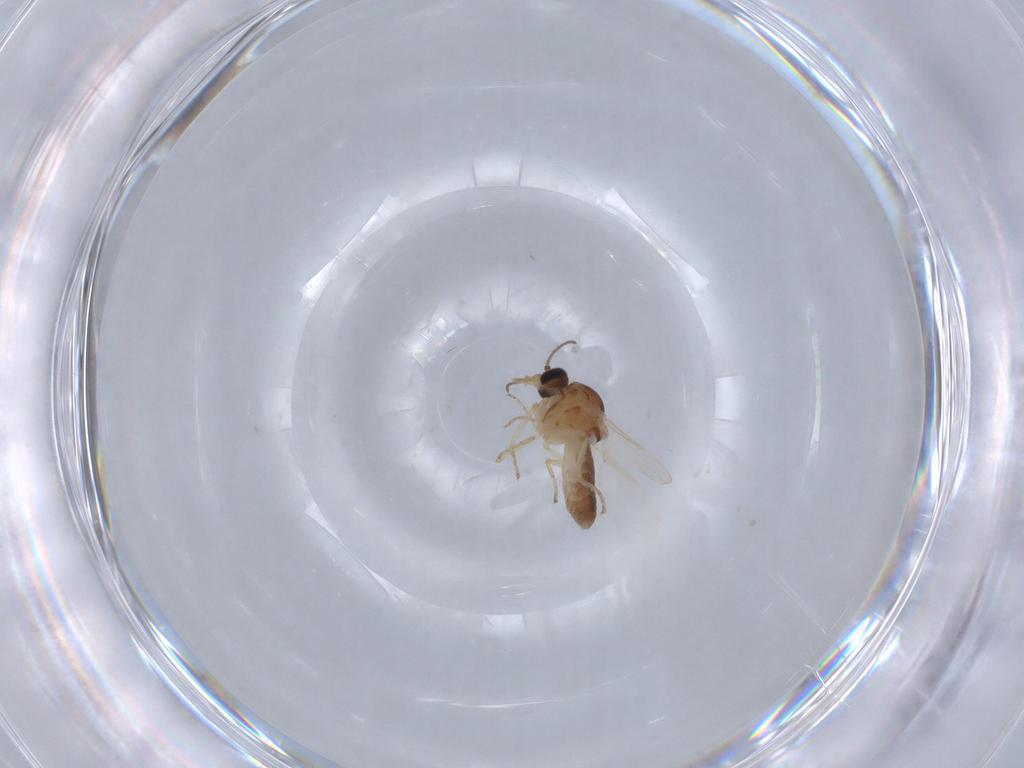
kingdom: Animalia
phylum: Arthropoda
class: Insecta
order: Diptera
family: Ceratopogonidae
